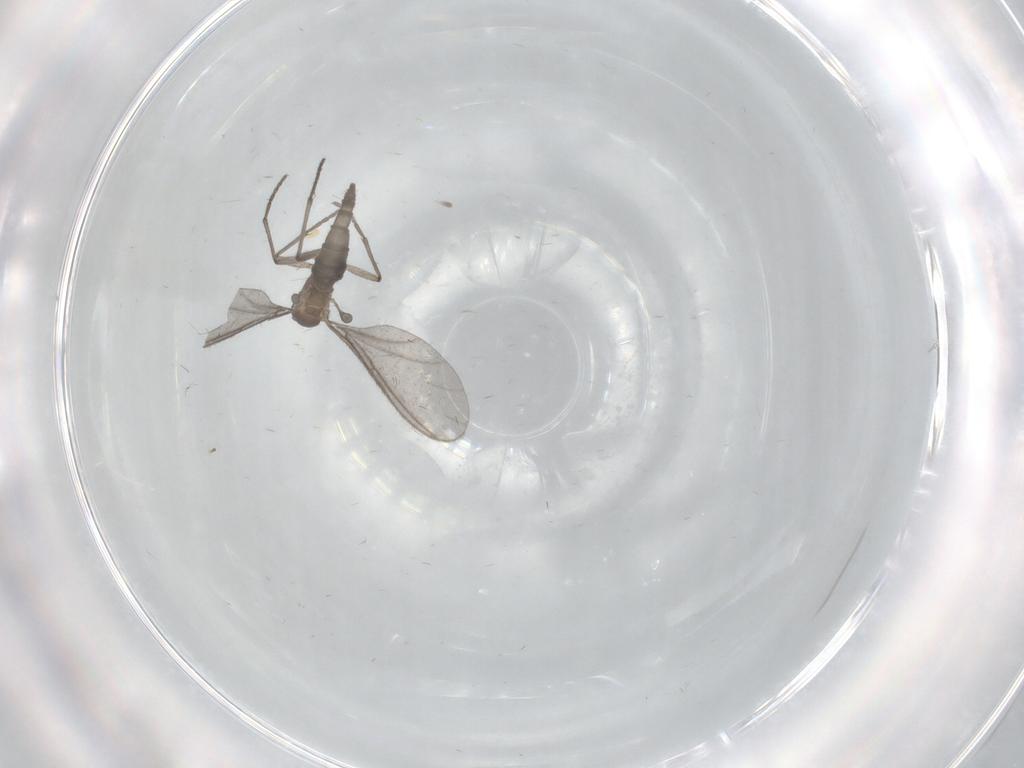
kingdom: Animalia
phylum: Arthropoda
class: Insecta
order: Diptera
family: Sciaridae
